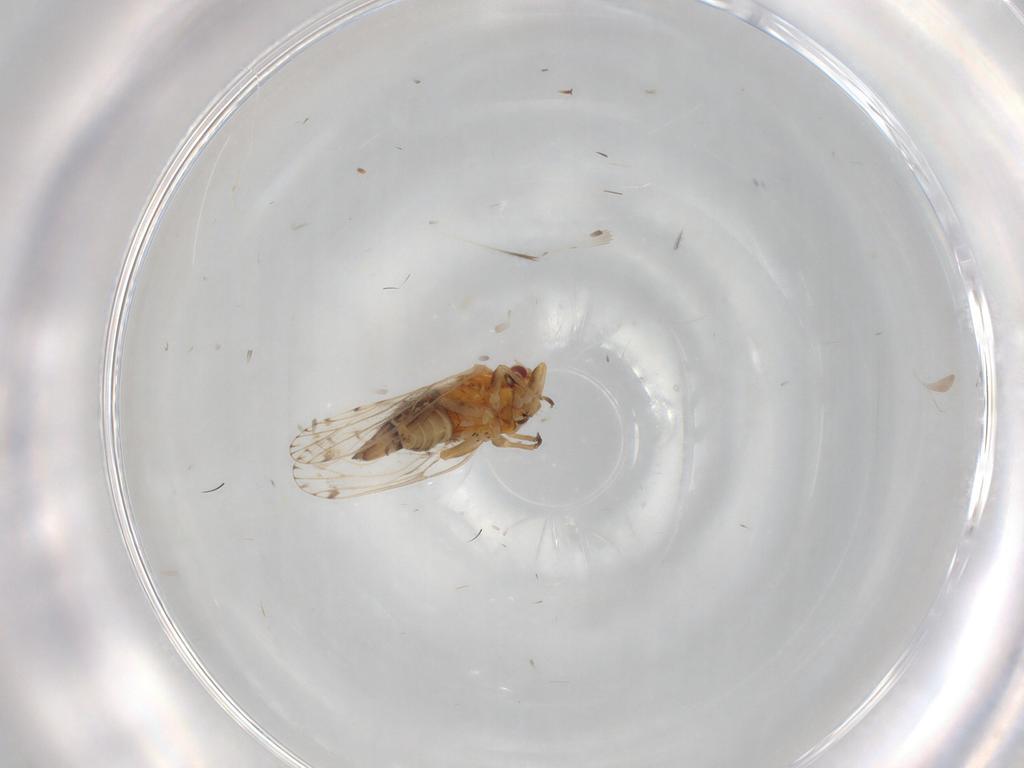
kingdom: Animalia
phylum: Arthropoda
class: Insecta
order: Hemiptera
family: Psyllidae
